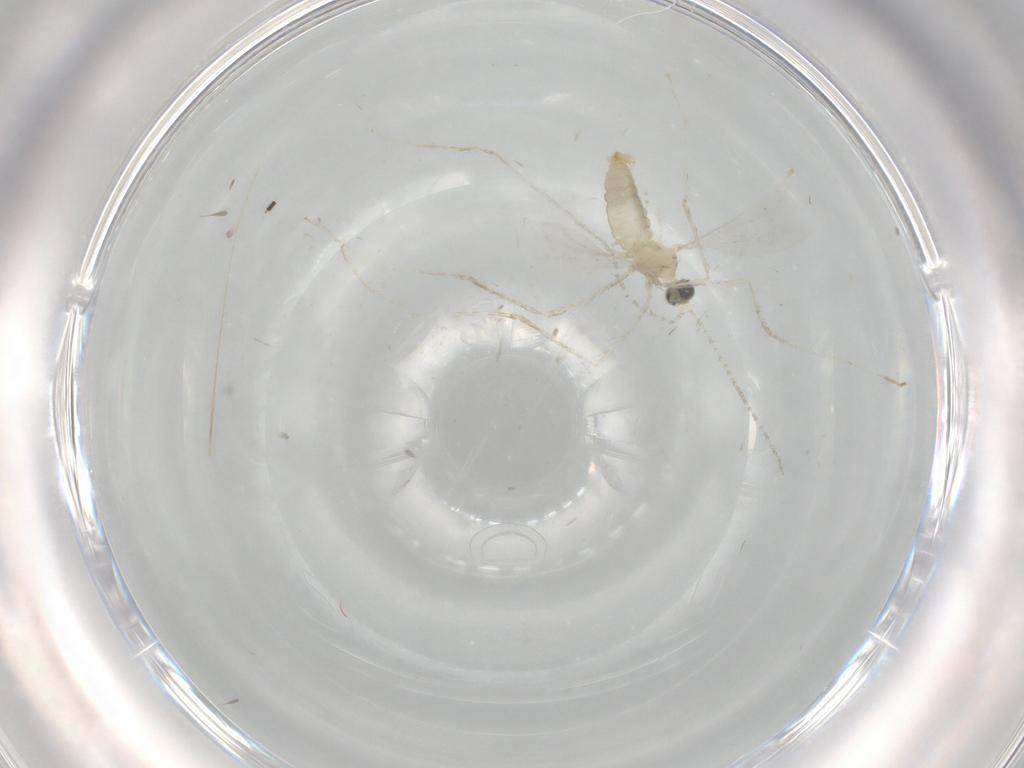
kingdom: Animalia
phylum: Arthropoda
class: Insecta
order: Diptera
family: Cecidomyiidae
